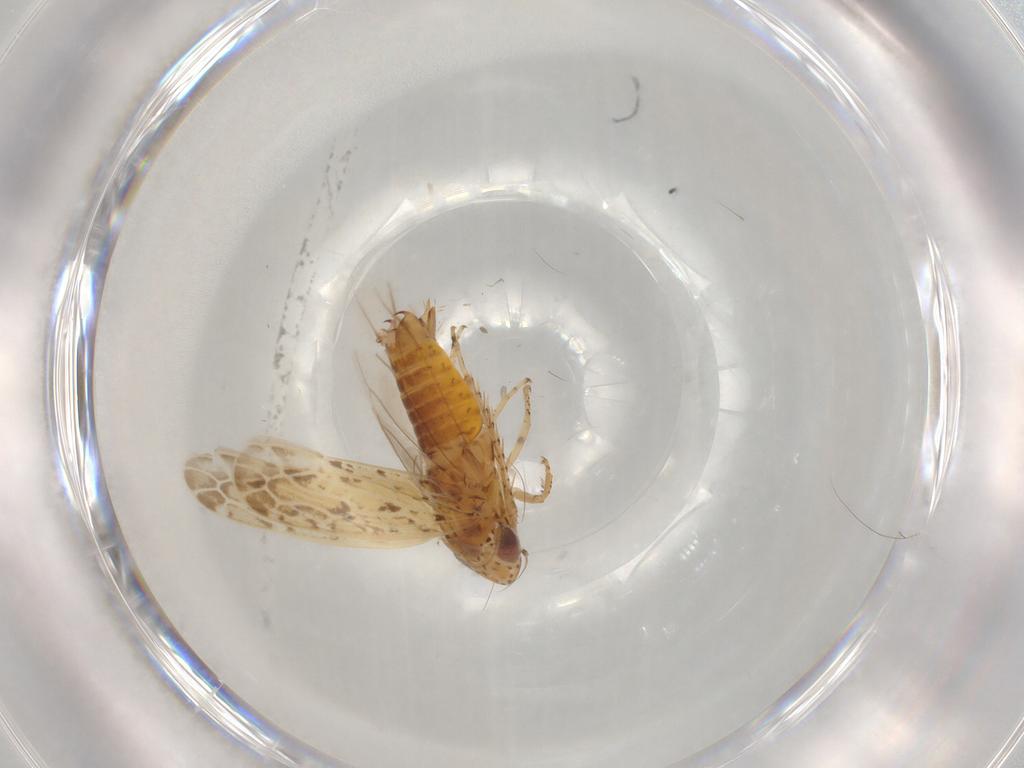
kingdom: Animalia
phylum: Arthropoda
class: Insecta
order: Hemiptera
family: Cicadellidae
